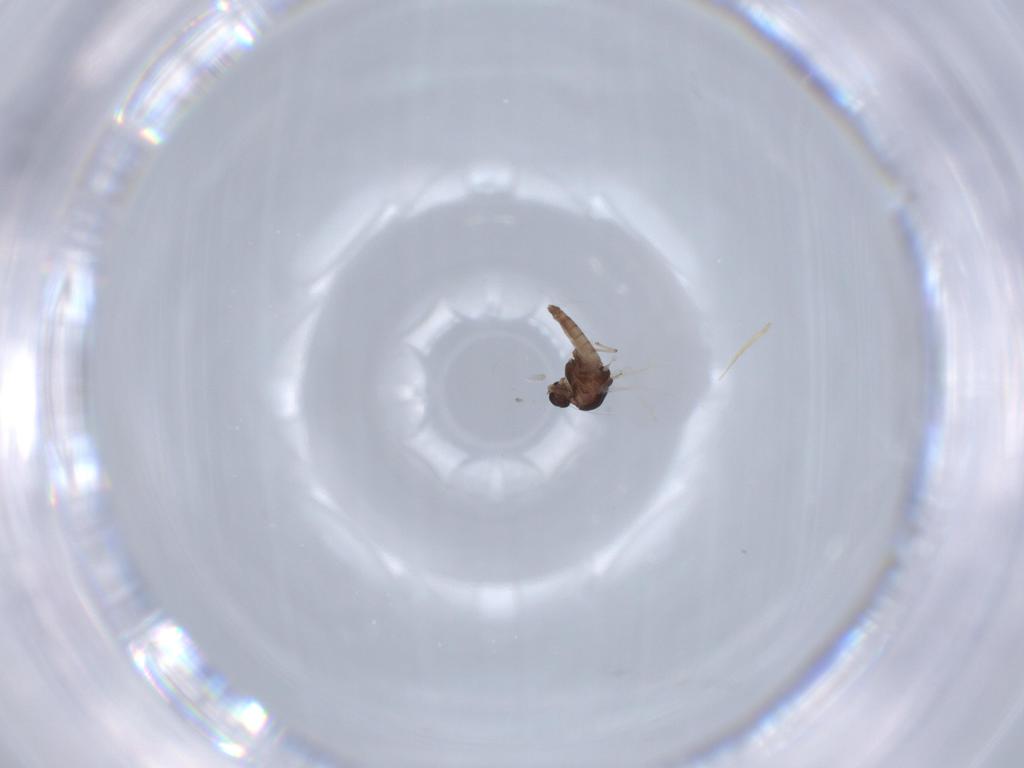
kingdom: Animalia
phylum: Arthropoda
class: Insecta
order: Diptera
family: Chironomidae
